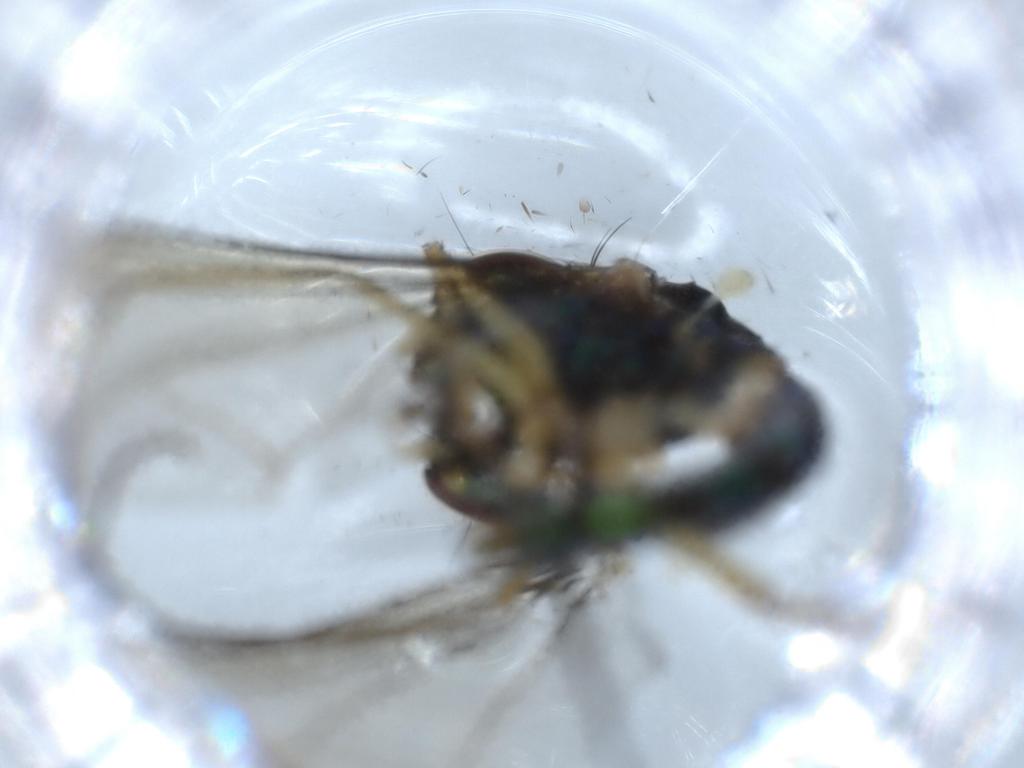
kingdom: Animalia
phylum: Arthropoda
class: Insecta
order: Diptera
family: Dolichopodidae
